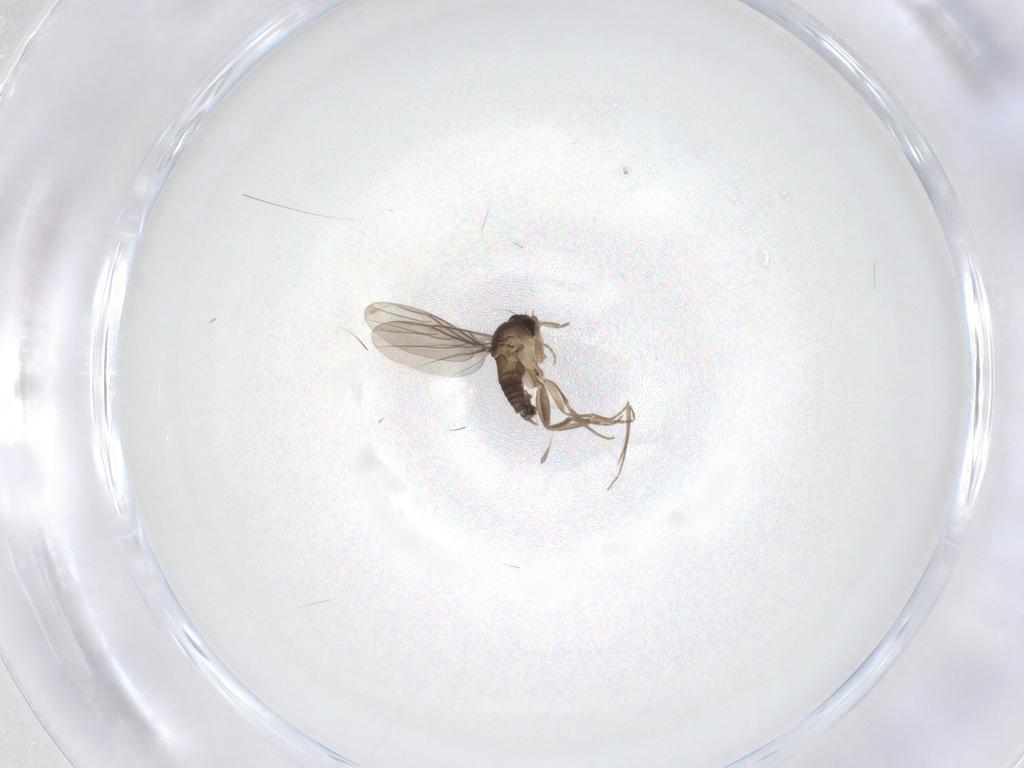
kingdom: Animalia
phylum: Arthropoda
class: Insecta
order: Diptera
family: Phoridae
